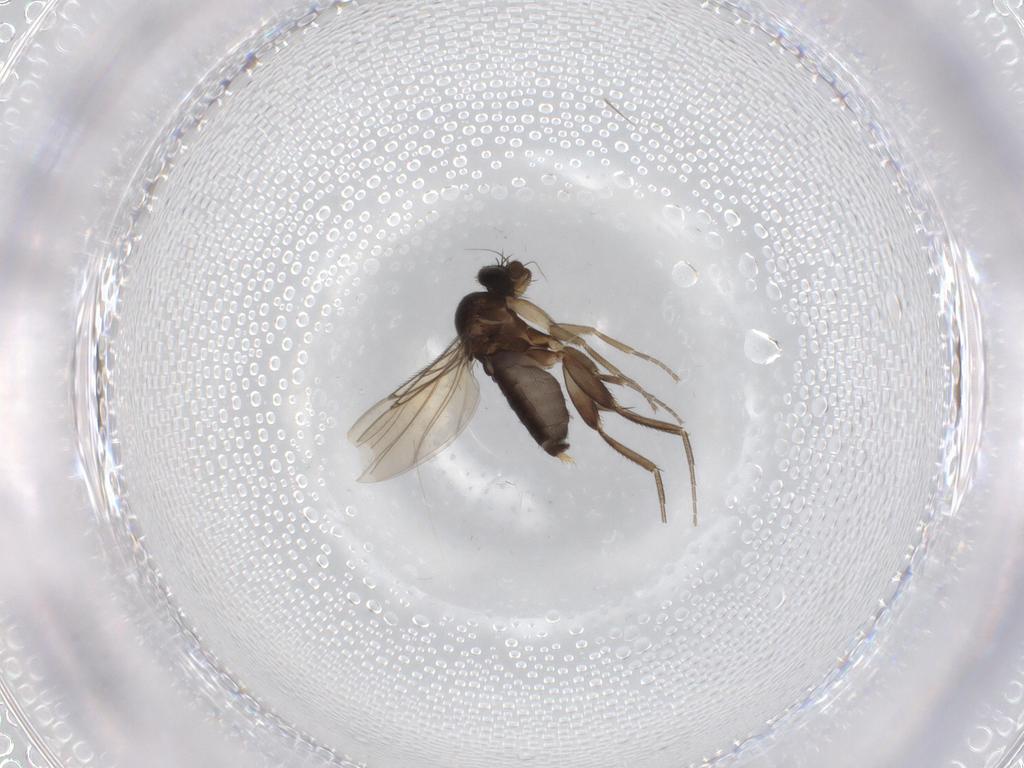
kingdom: Animalia
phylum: Arthropoda
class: Insecta
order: Diptera
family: Phoridae
